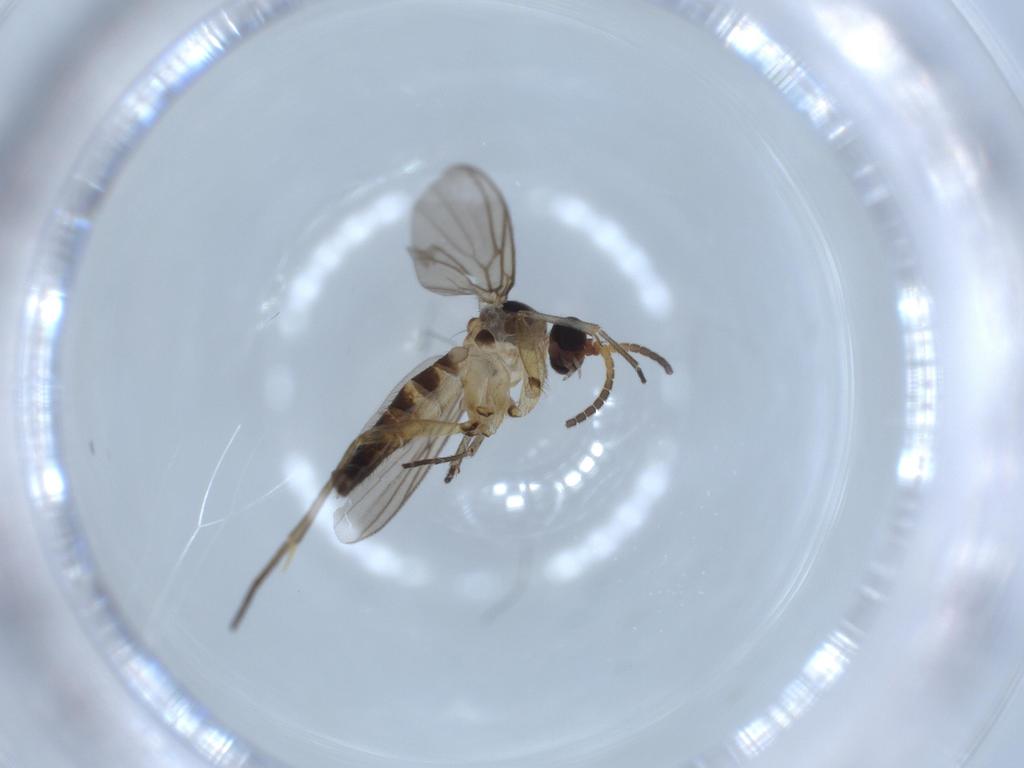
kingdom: Animalia
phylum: Arthropoda
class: Insecta
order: Diptera
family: Mycetophilidae
